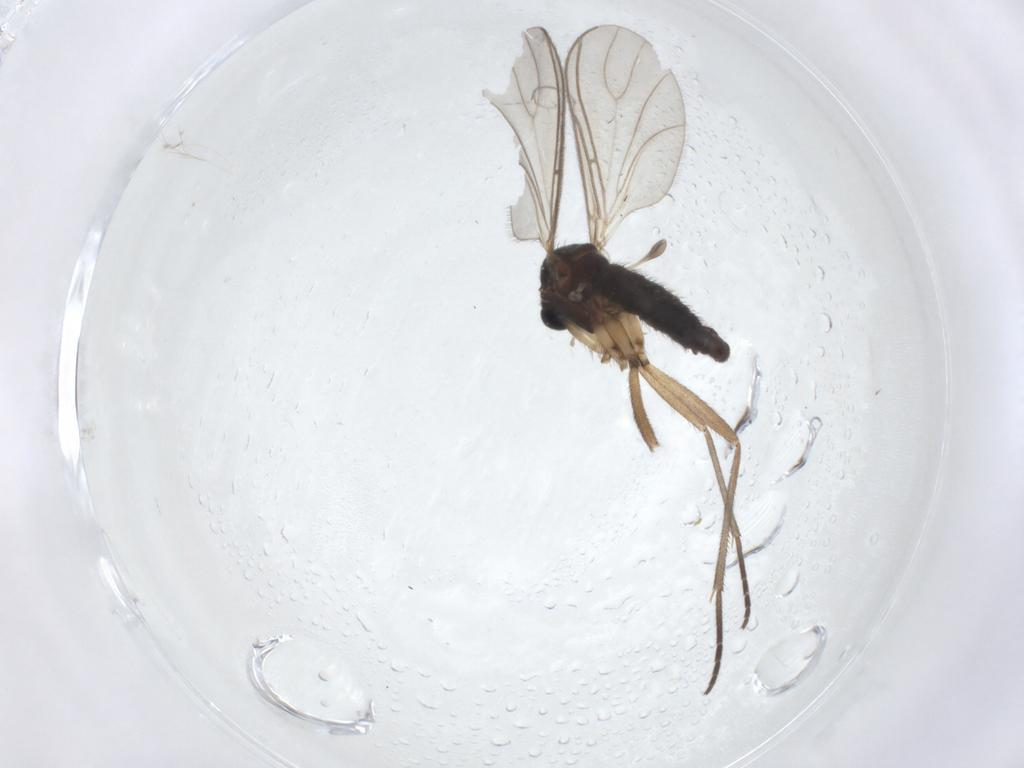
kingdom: Animalia
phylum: Arthropoda
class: Insecta
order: Diptera
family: Sciaridae
